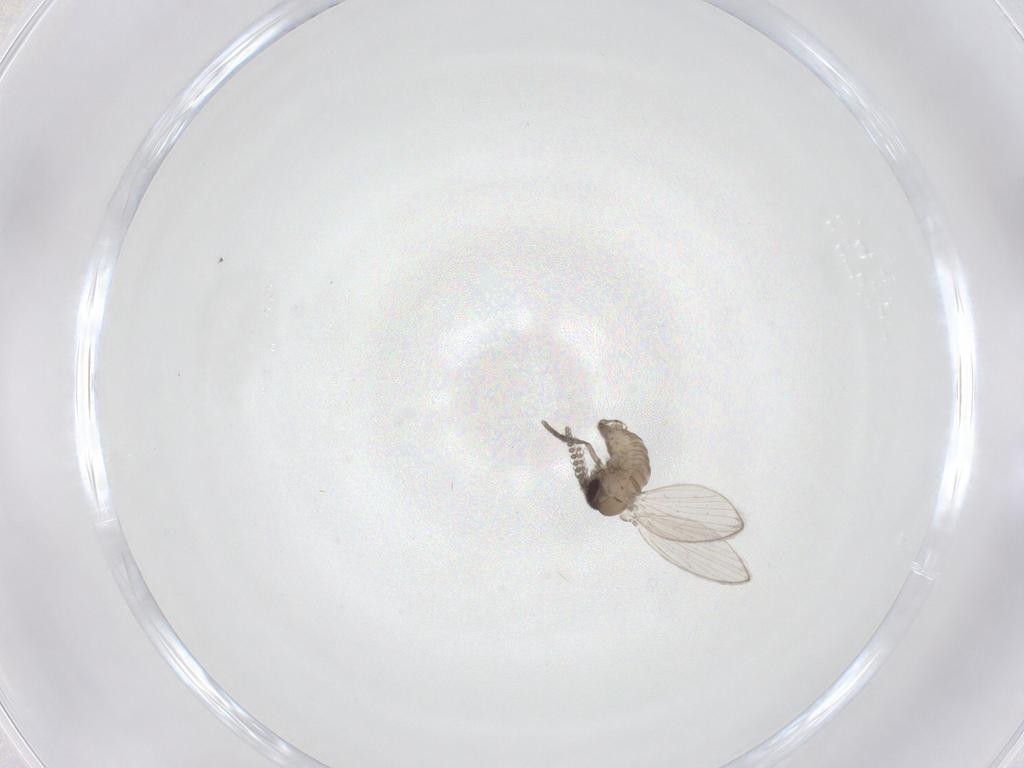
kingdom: Animalia
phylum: Arthropoda
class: Insecta
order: Diptera
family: Psychodidae
